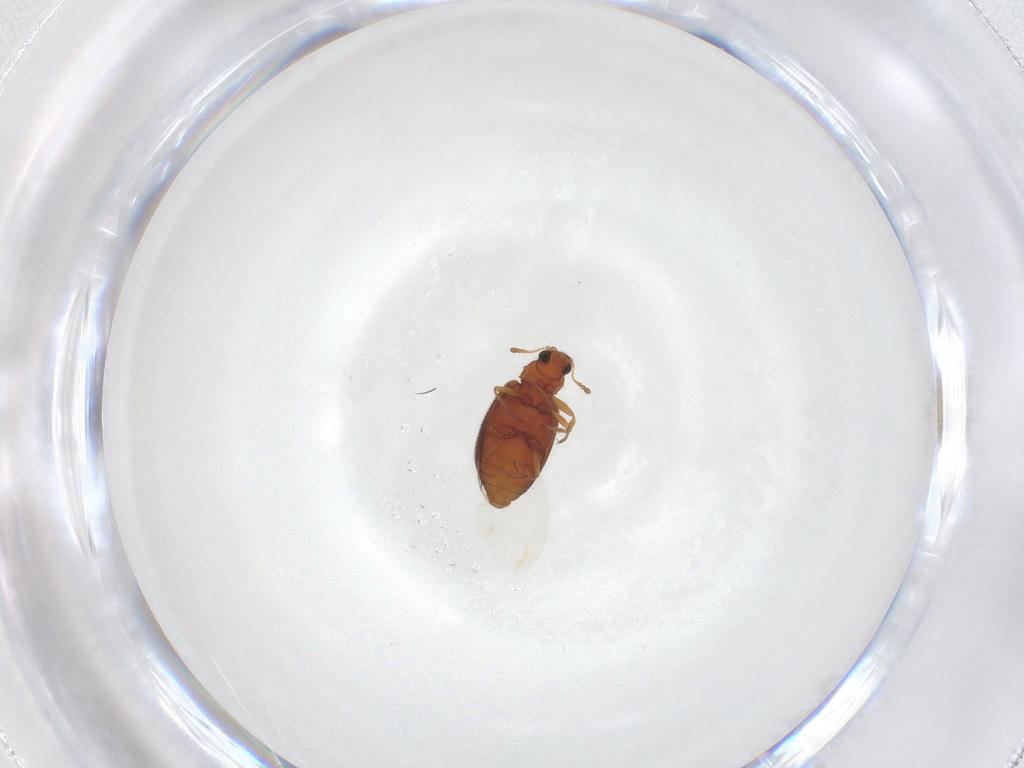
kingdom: Animalia
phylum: Arthropoda
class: Insecta
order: Coleoptera
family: Latridiidae
